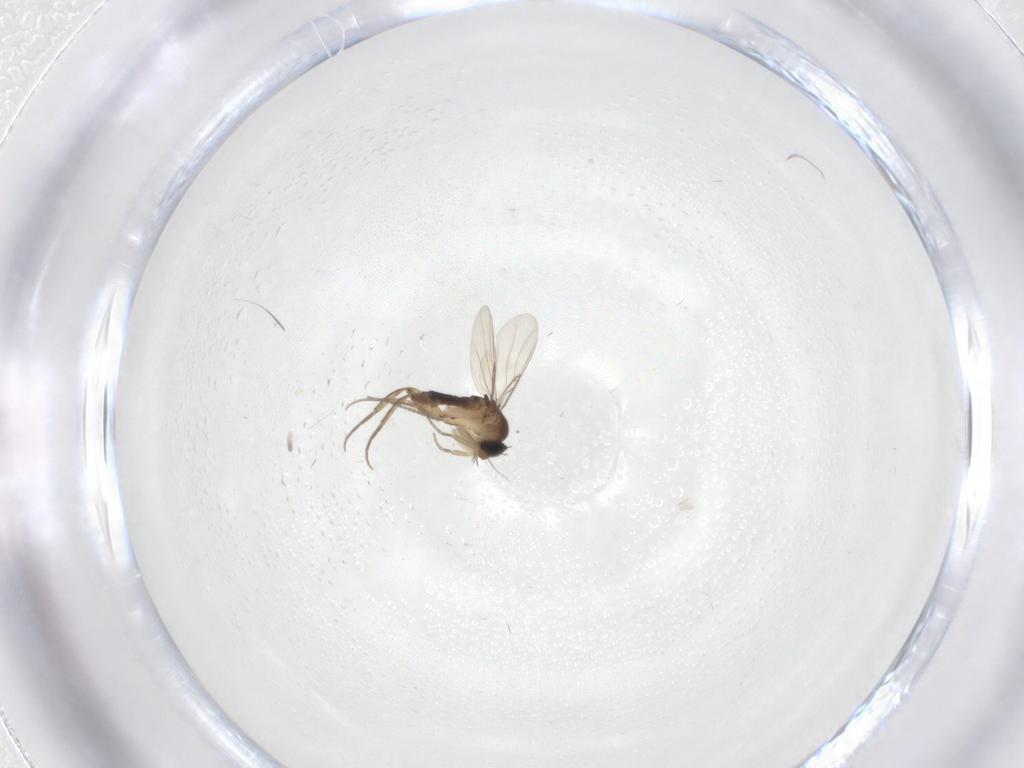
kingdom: Animalia
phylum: Arthropoda
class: Insecta
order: Diptera
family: Phoridae
